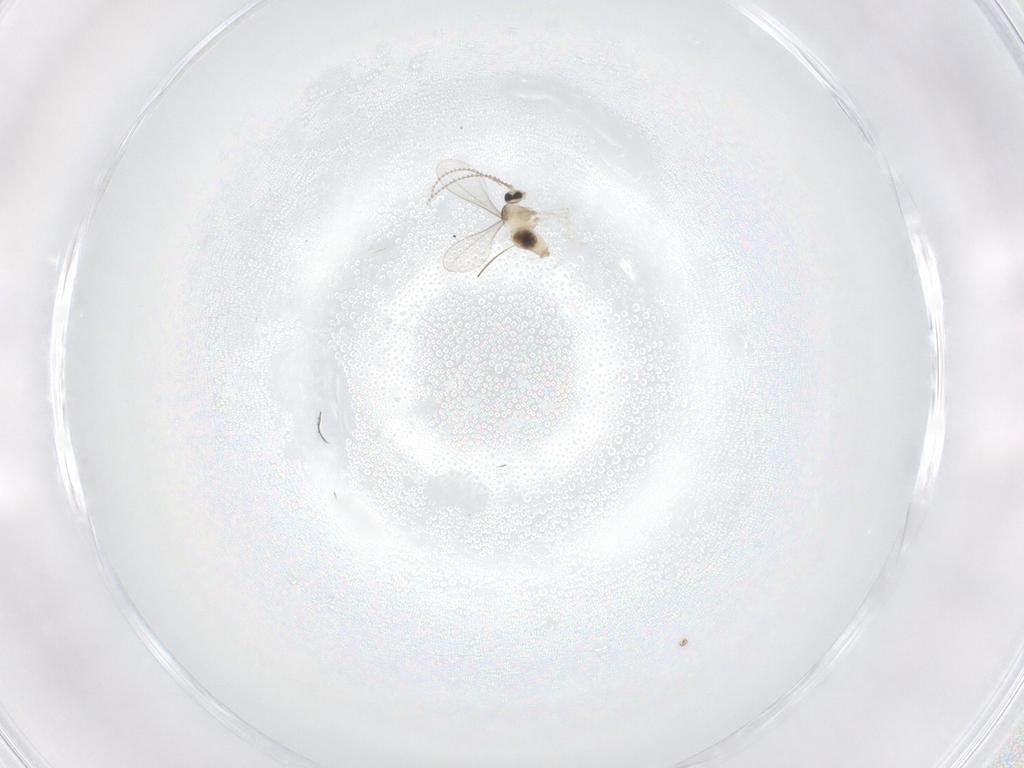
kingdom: Animalia
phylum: Arthropoda
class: Insecta
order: Diptera
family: Cecidomyiidae
